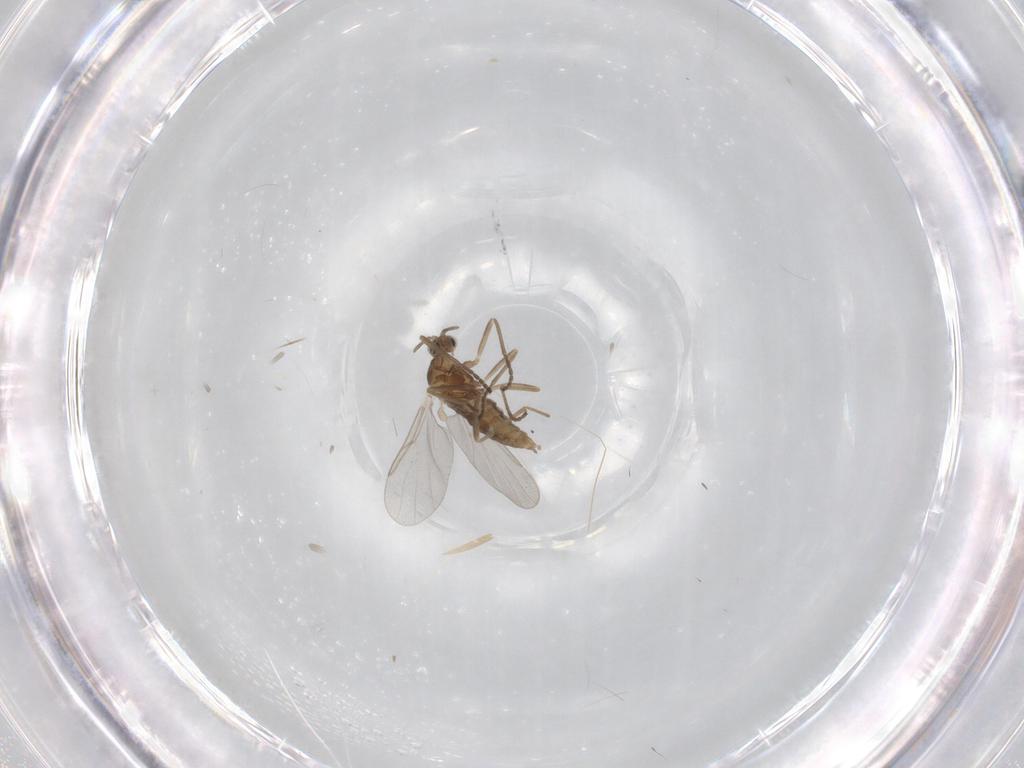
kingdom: Animalia
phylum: Arthropoda
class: Insecta
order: Diptera
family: Cecidomyiidae
